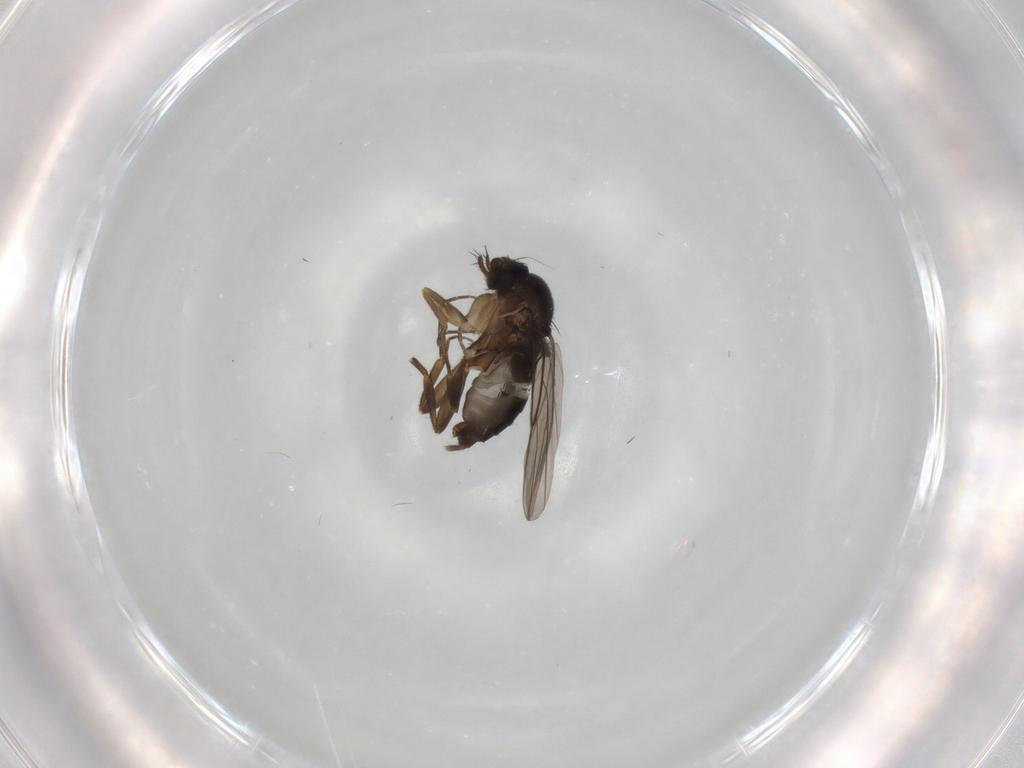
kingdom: Animalia
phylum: Arthropoda
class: Insecta
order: Diptera
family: Phoridae
